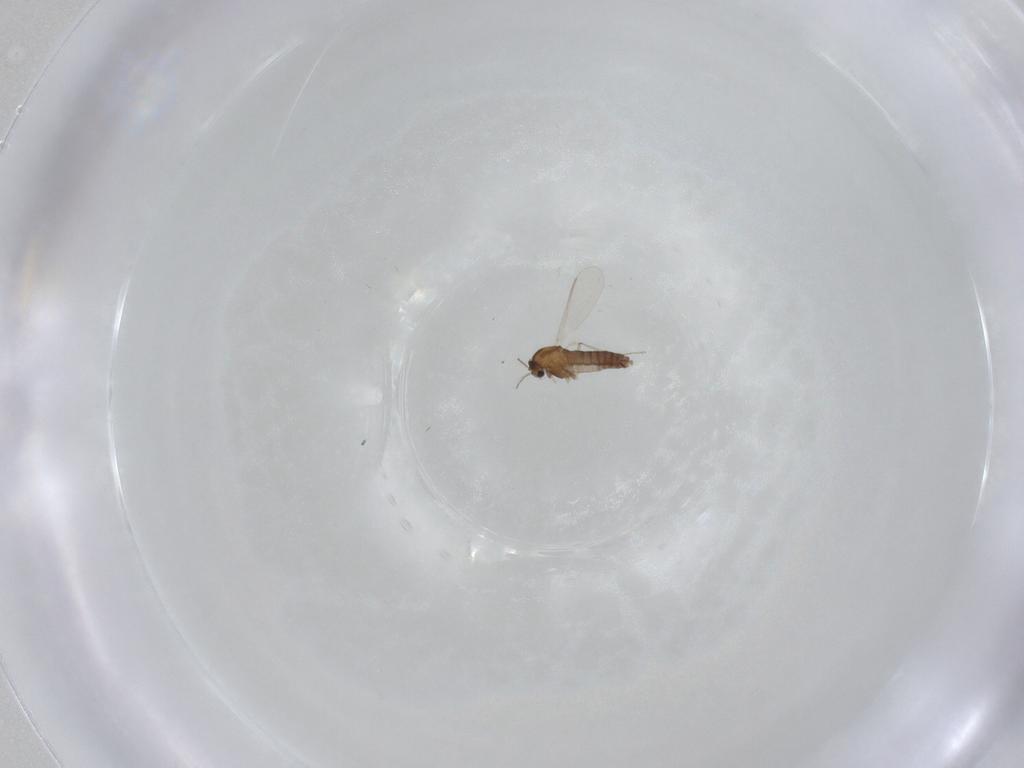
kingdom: Animalia
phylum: Arthropoda
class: Insecta
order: Diptera
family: Chironomidae
